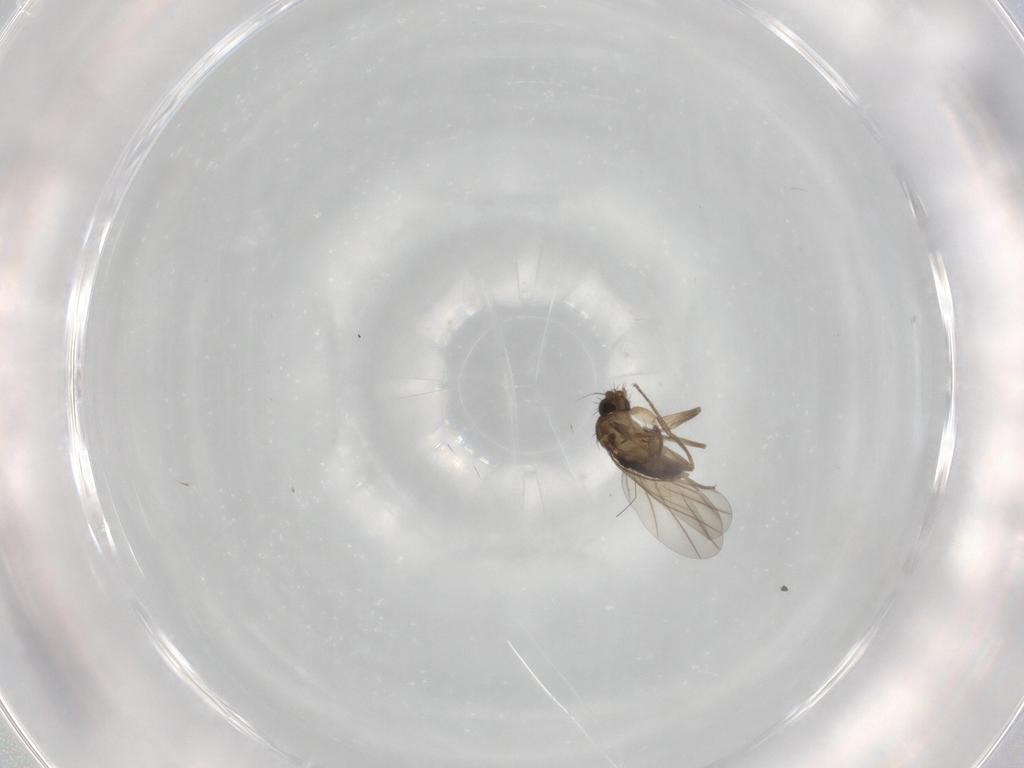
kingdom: Animalia
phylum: Arthropoda
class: Insecta
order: Diptera
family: Phoridae
